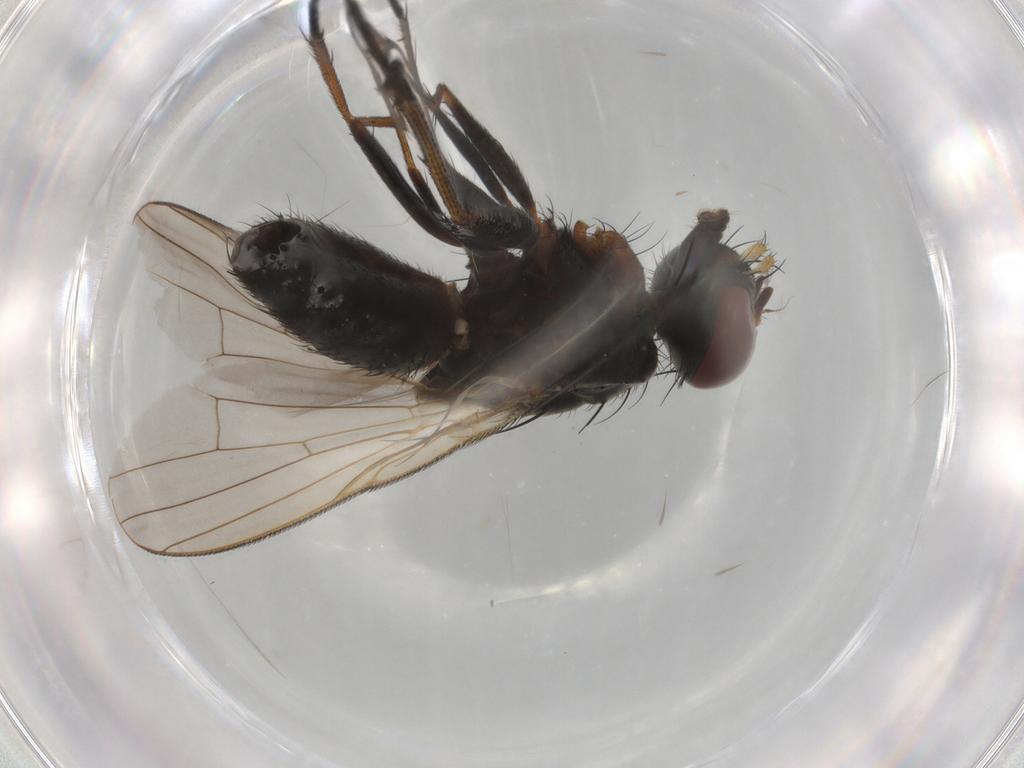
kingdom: Animalia
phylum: Arthropoda
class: Insecta
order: Diptera
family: Muscidae
